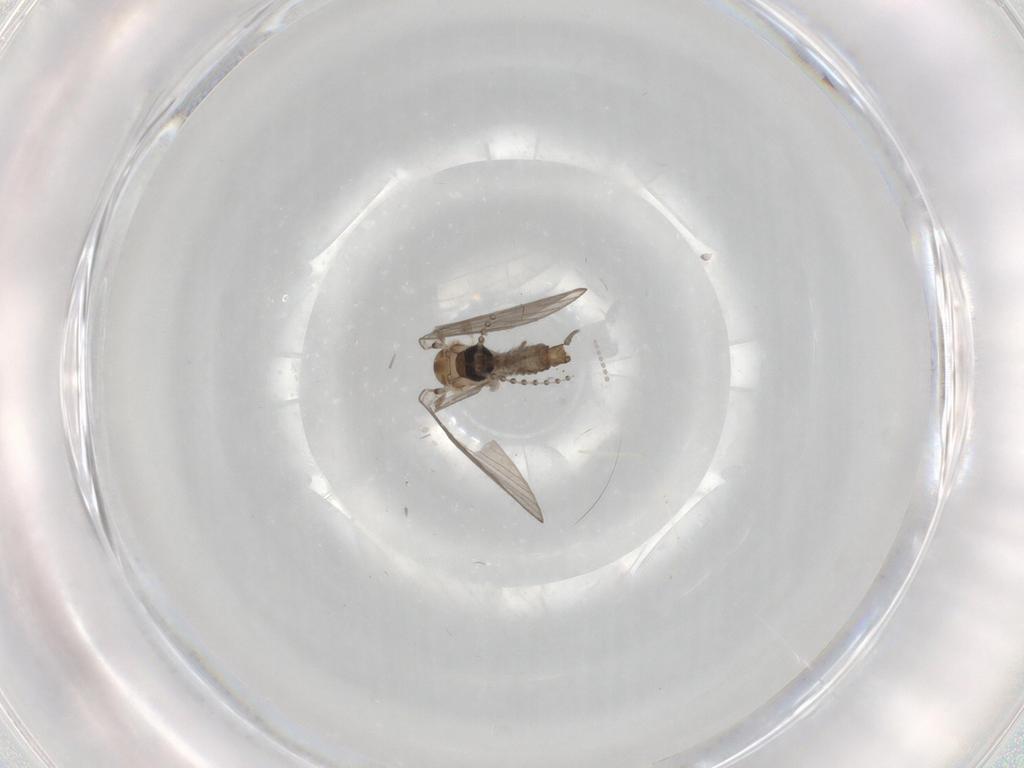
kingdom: Animalia
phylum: Arthropoda
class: Insecta
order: Diptera
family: Psychodidae
